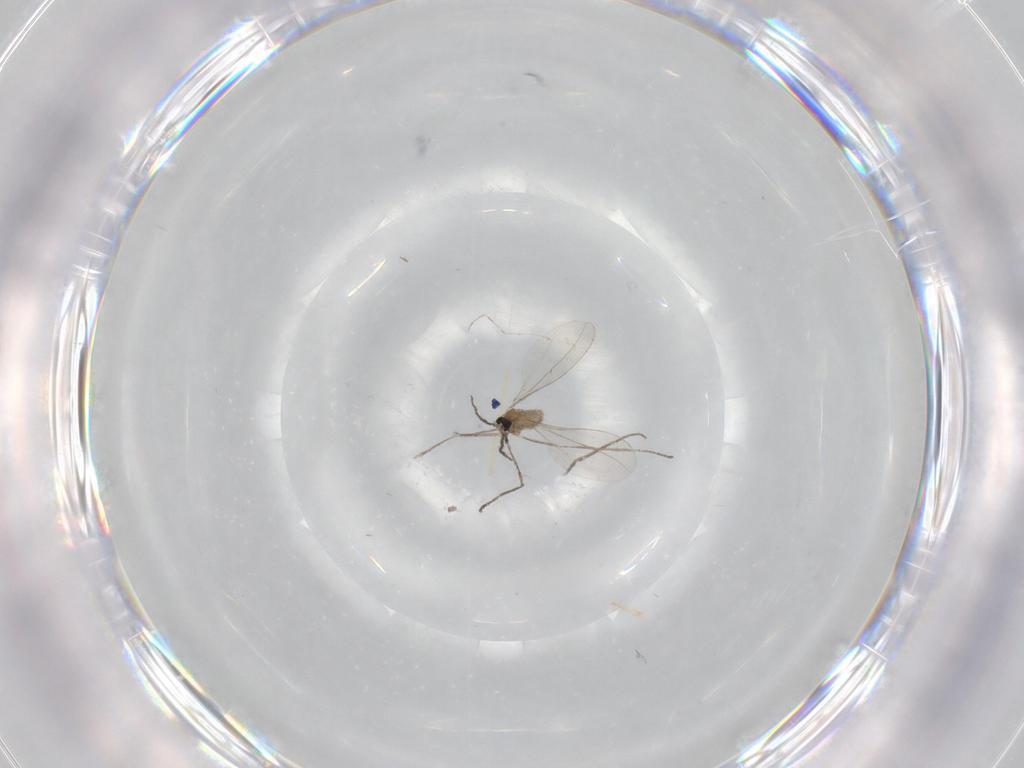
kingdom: Animalia
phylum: Arthropoda
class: Insecta
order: Diptera
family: Chironomidae
